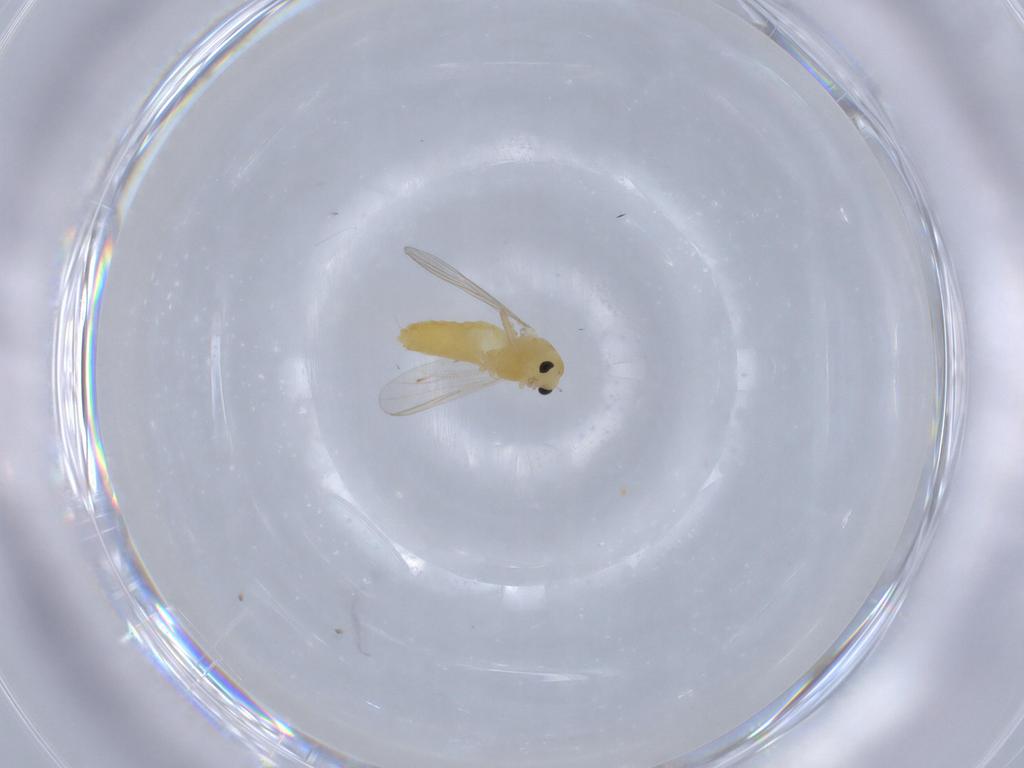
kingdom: Animalia
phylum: Arthropoda
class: Insecta
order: Diptera
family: Chironomidae
